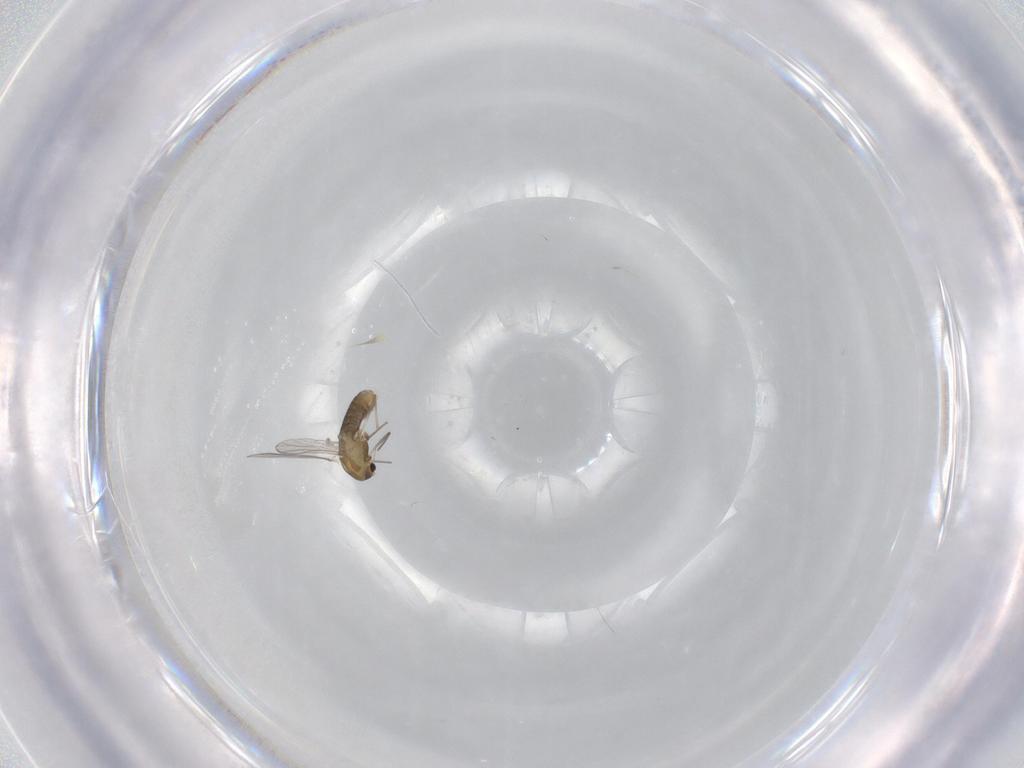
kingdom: Animalia
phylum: Arthropoda
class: Insecta
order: Diptera
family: Chironomidae
